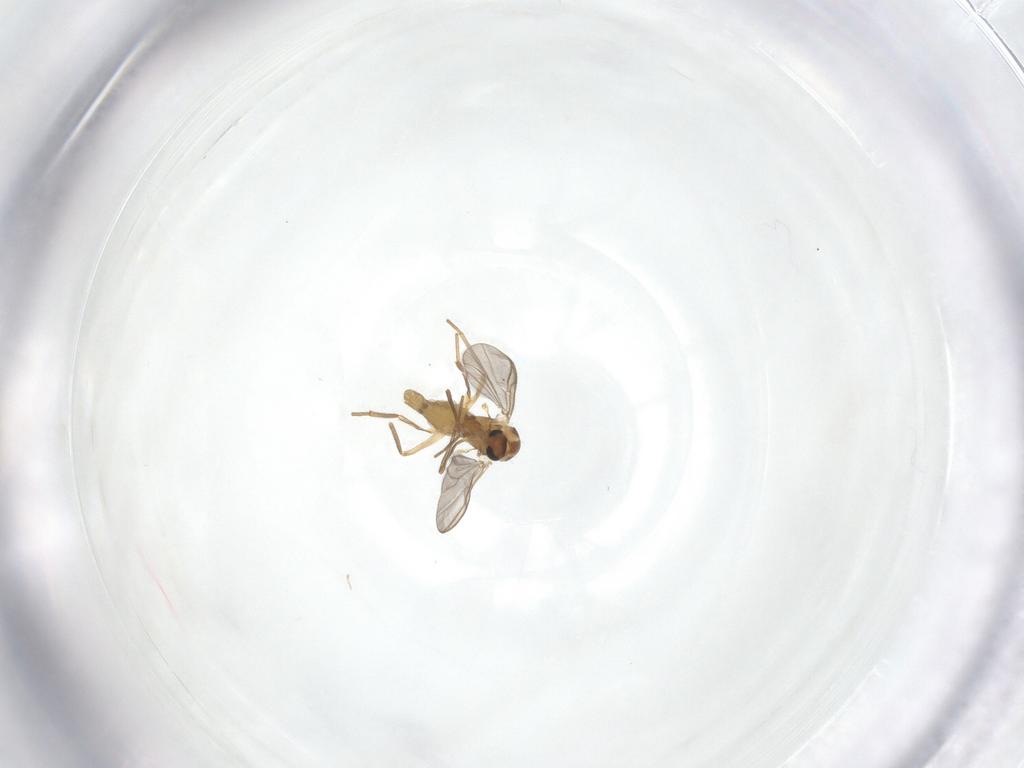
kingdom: Animalia
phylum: Arthropoda
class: Insecta
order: Diptera
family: Chironomidae
